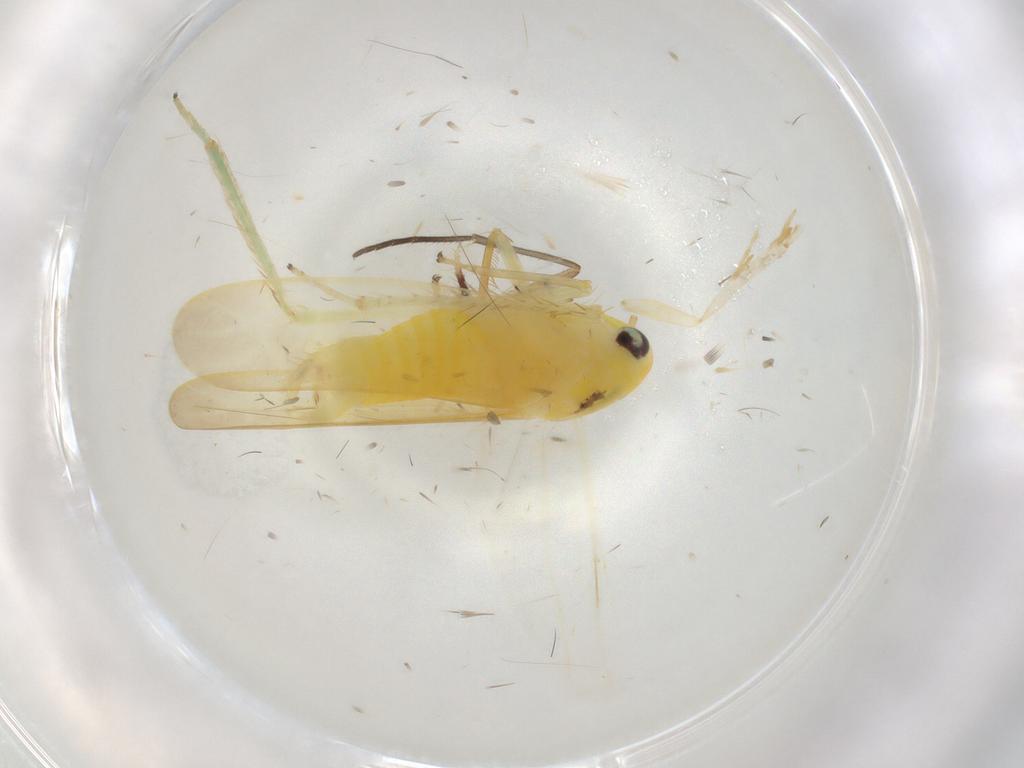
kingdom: Animalia
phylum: Arthropoda
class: Insecta
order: Hemiptera
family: Cicadellidae
